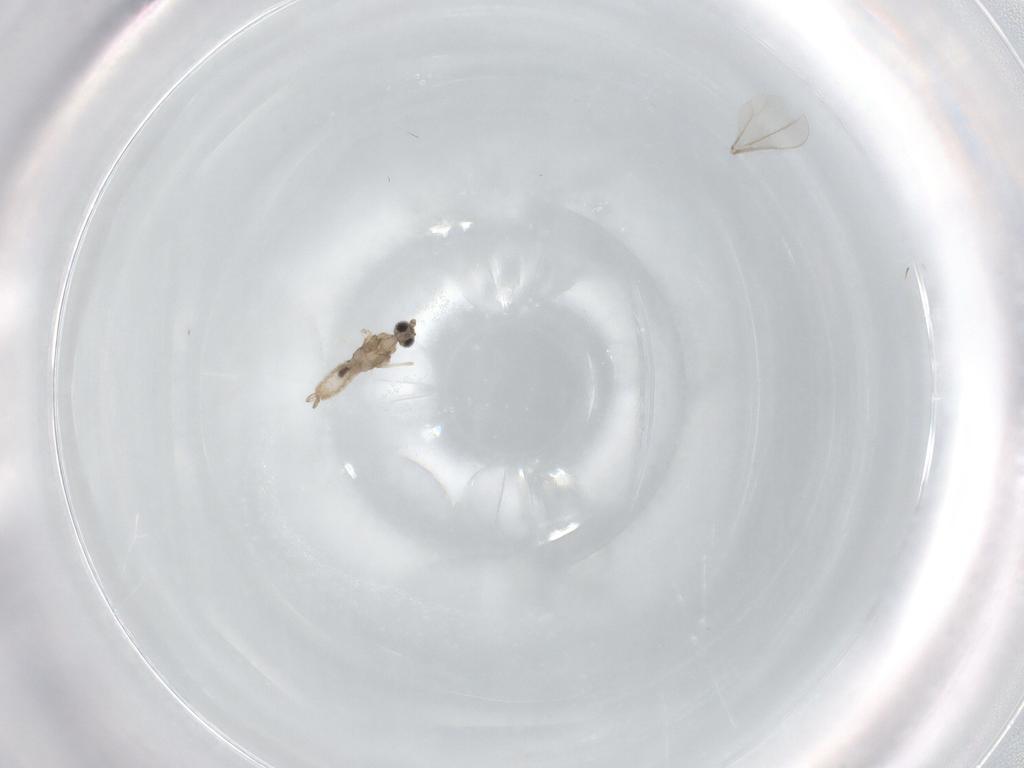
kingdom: Animalia
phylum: Arthropoda
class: Insecta
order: Diptera
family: Cecidomyiidae
